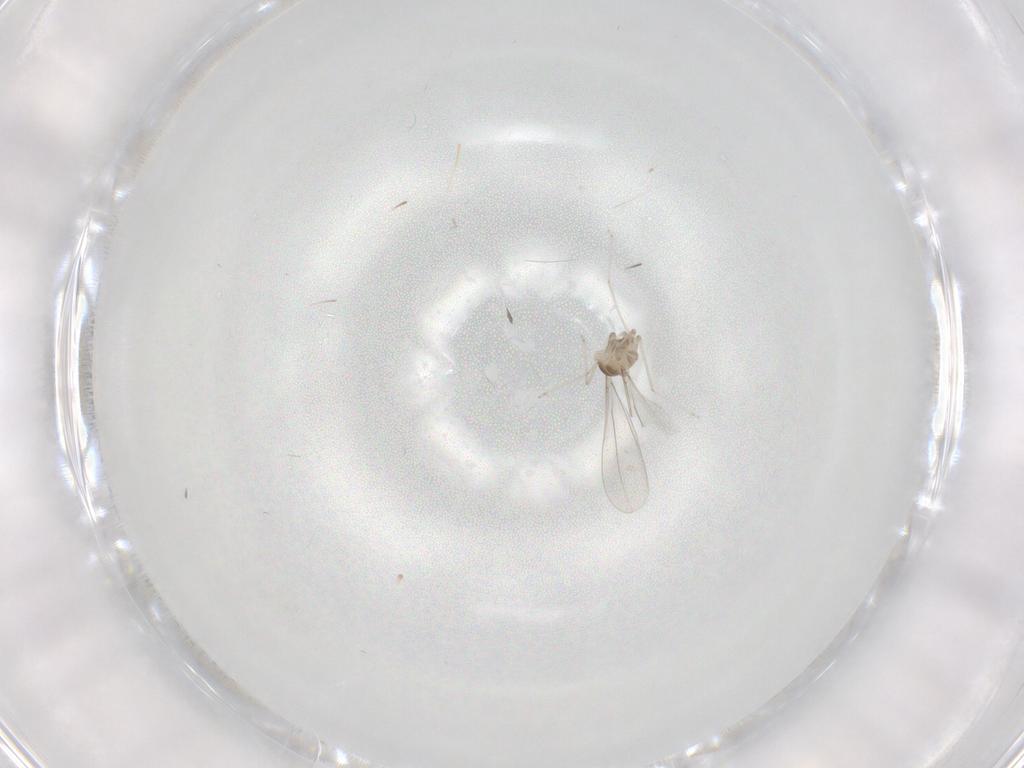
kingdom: Animalia
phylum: Arthropoda
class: Insecta
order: Diptera
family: Cecidomyiidae
